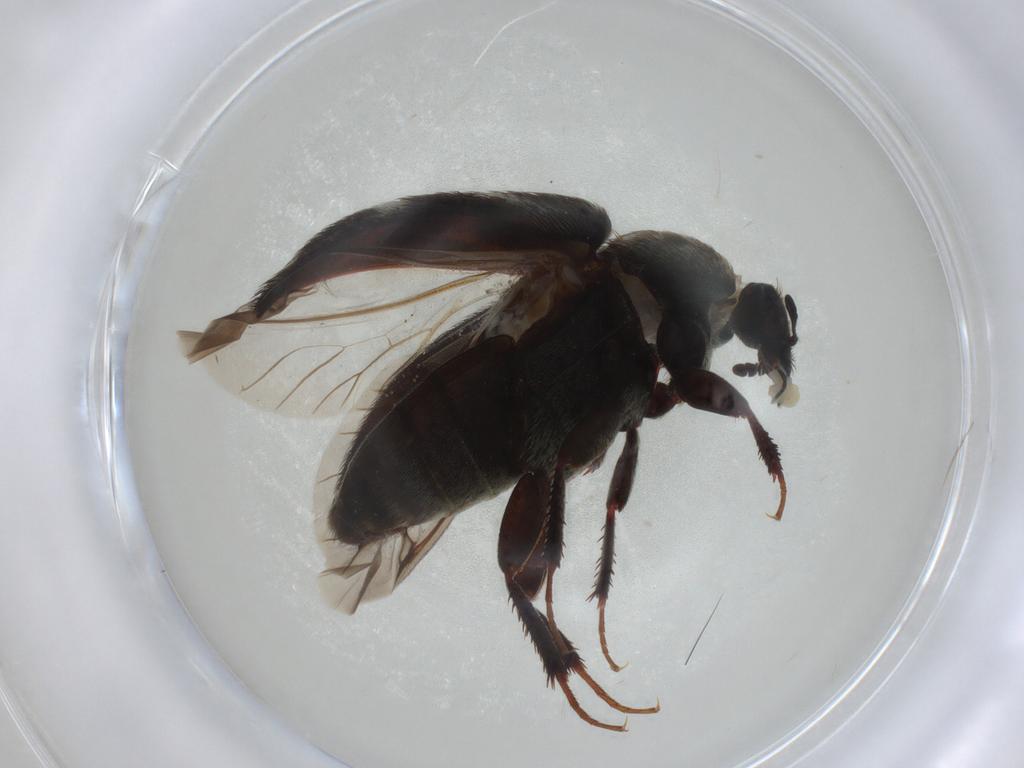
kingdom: Animalia
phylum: Arthropoda
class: Insecta
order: Coleoptera
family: Dermestidae
